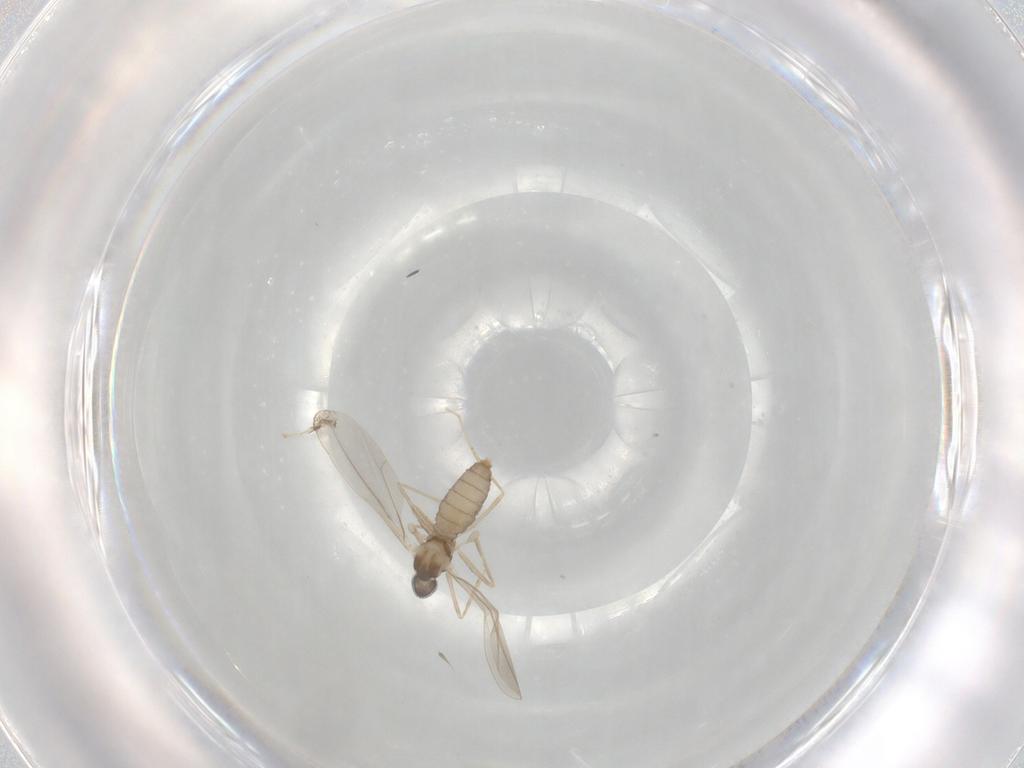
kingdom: Animalia
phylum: Arthropoda
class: Insecta
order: Diptera
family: Cecidomyiidae
